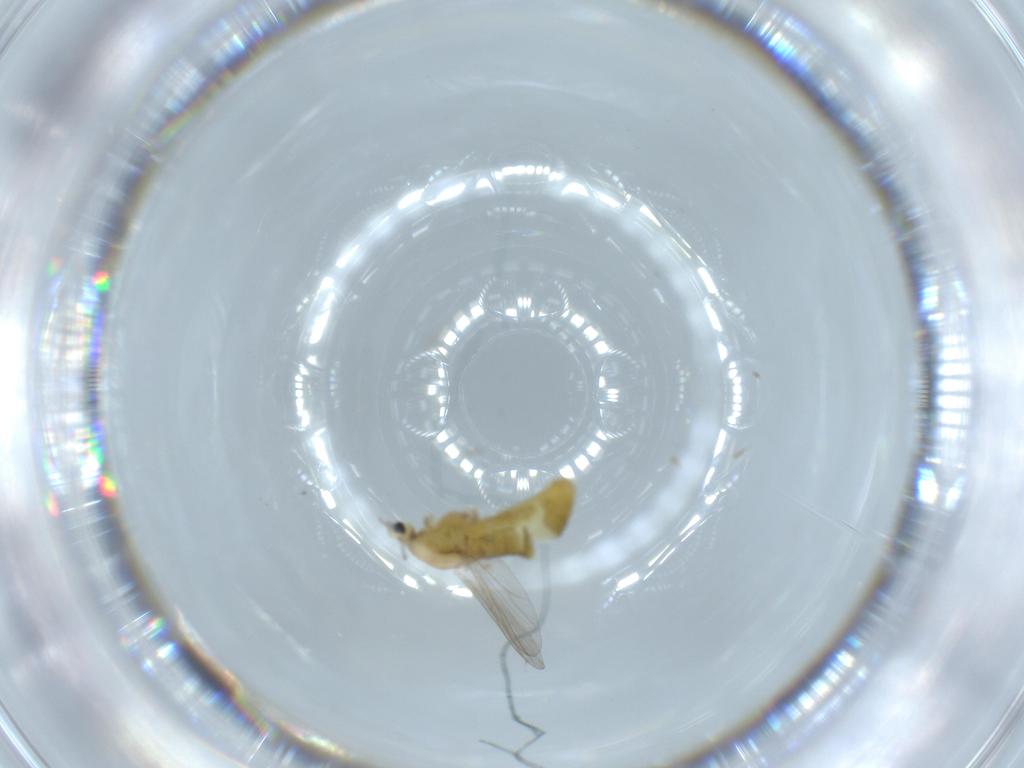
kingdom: Animalia
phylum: Arthropoda
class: Insecta
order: Diptera
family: Chironomidae
